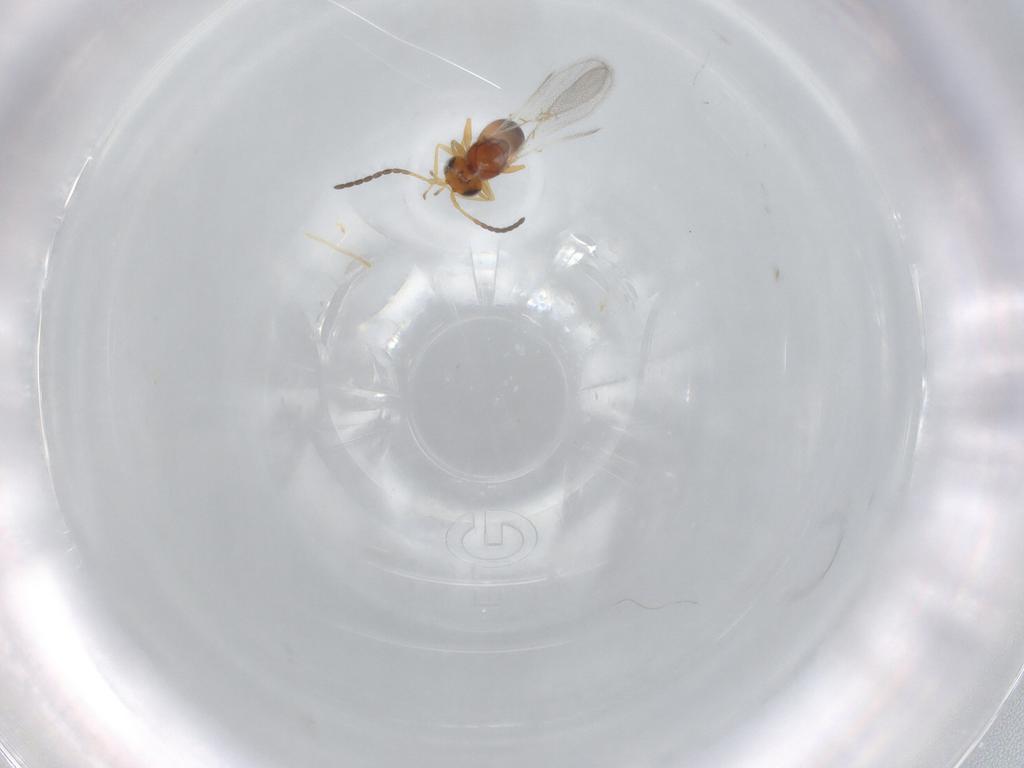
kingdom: Animalia
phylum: Arthropoda
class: Insecta
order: Hymenoptera
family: Figitidae
